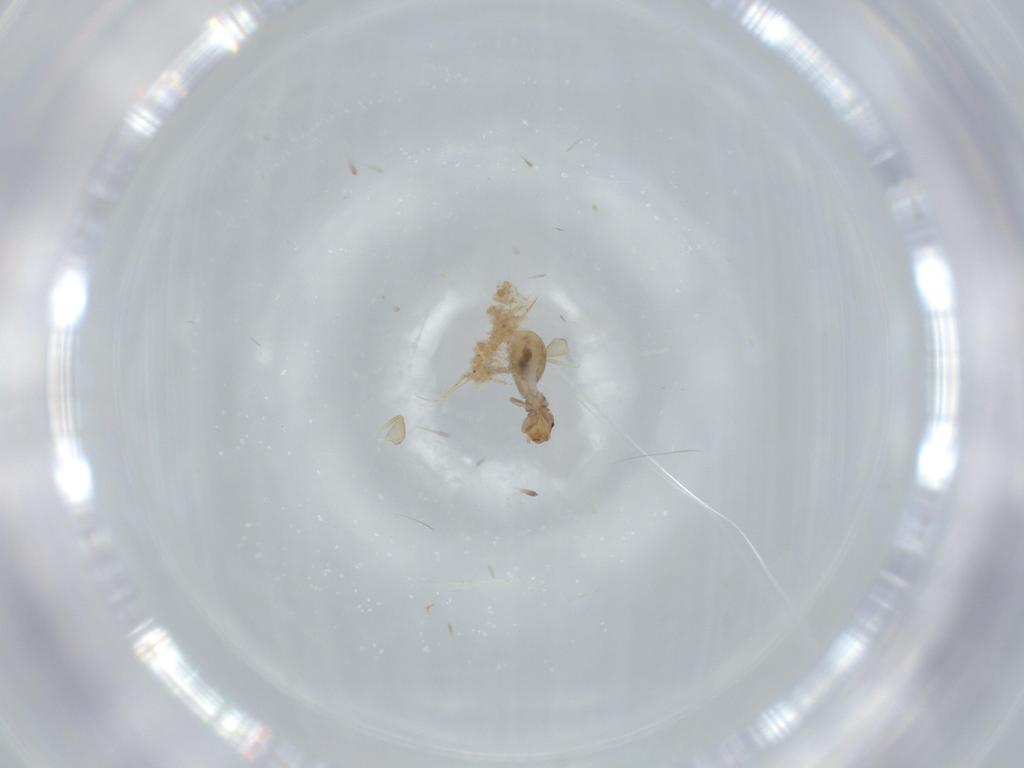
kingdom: Animalia
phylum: Arthropoda
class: Insecta
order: Psocodea
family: Liposcelididae
